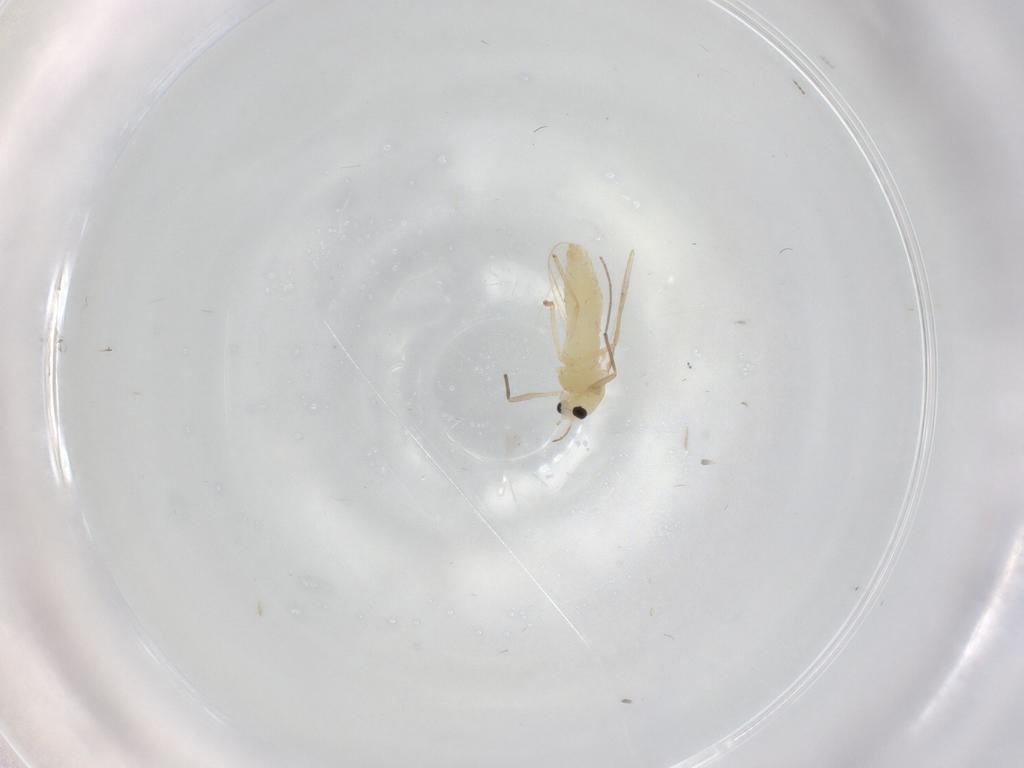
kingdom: Animalia
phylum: Arthropoda
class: Insecta
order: Diptera
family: Chironomidae
